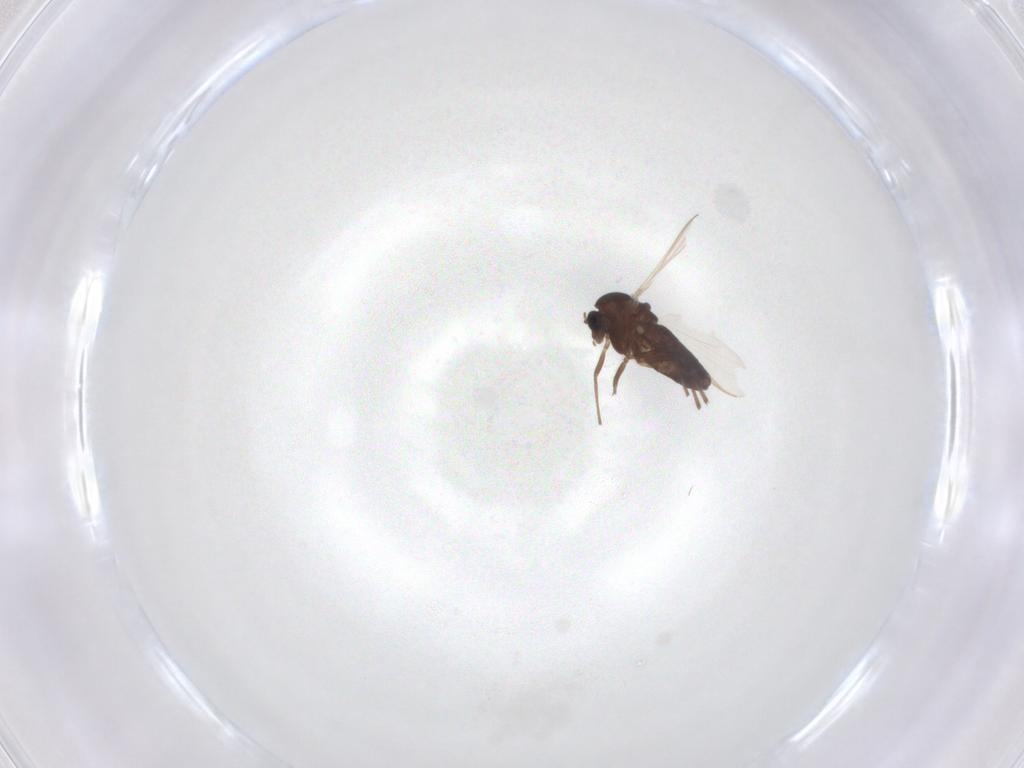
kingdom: Animalia
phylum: Arthropoda
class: Insecta
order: Diptera
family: Chironomidae
